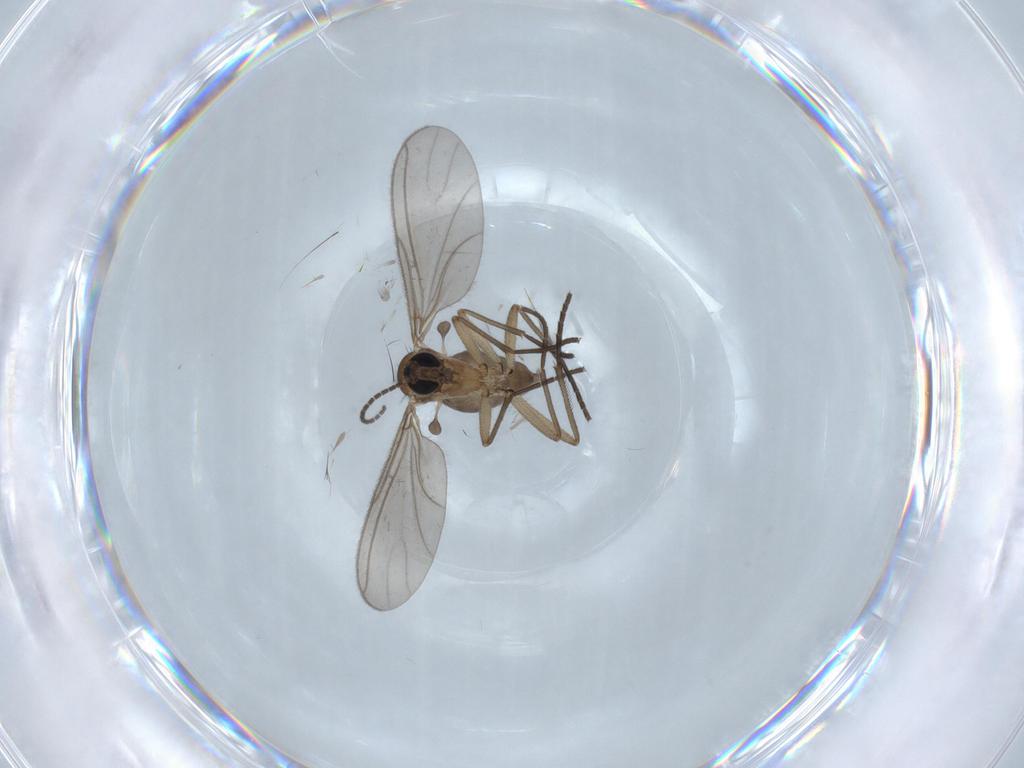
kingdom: Animalia
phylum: Arthropoda
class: Insecta
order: Diptera
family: Sciaridae
